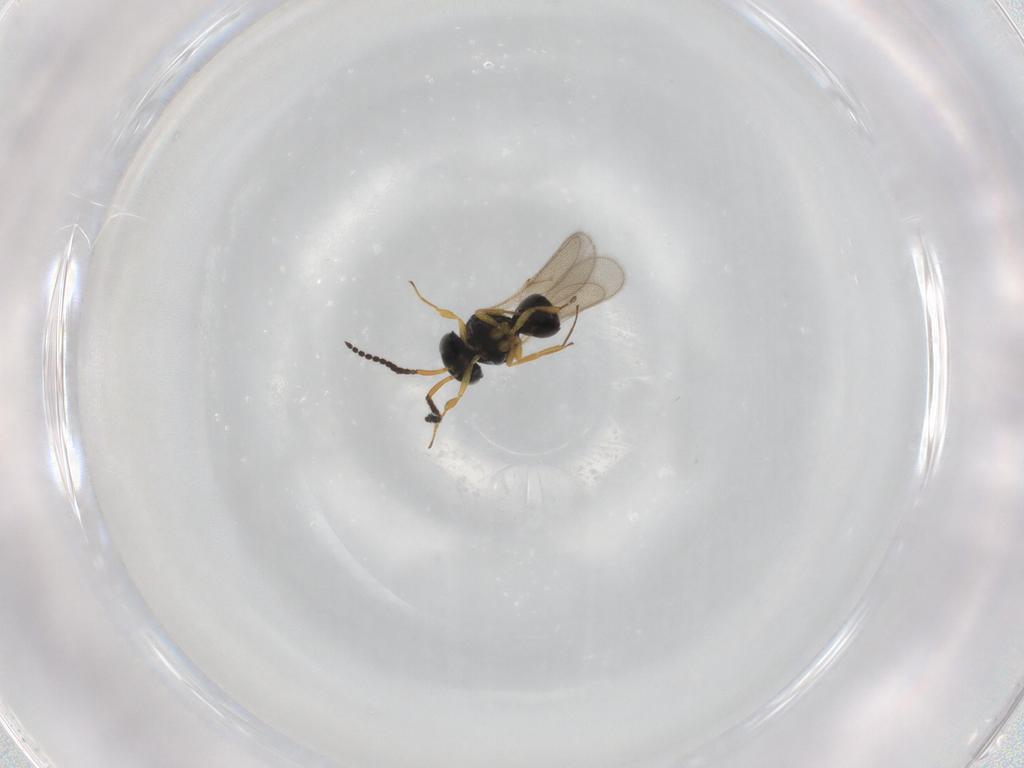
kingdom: Animalia
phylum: Arthropoda
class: Insecta
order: Hymenoptera
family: Scelionidae
